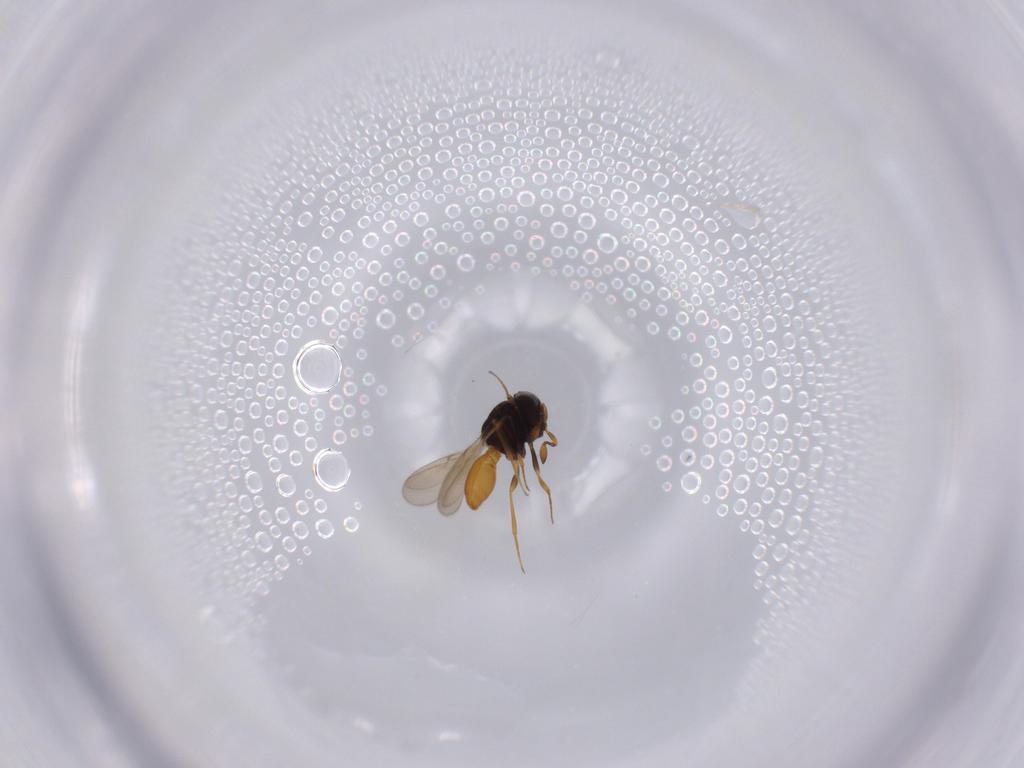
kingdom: Animalia
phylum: Arthropoda
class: Insecta
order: Hymenoptera
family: Scelionidae
